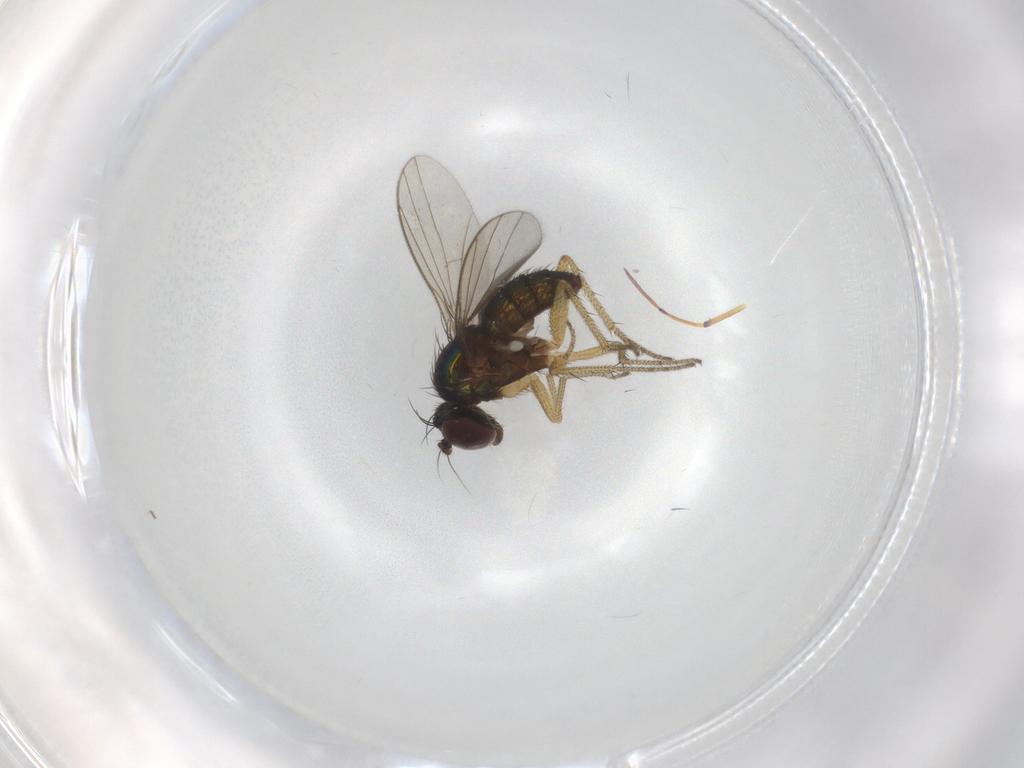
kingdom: Animalia
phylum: Arthropoda
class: Insecta
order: Diptera
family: Dolichopodidae
